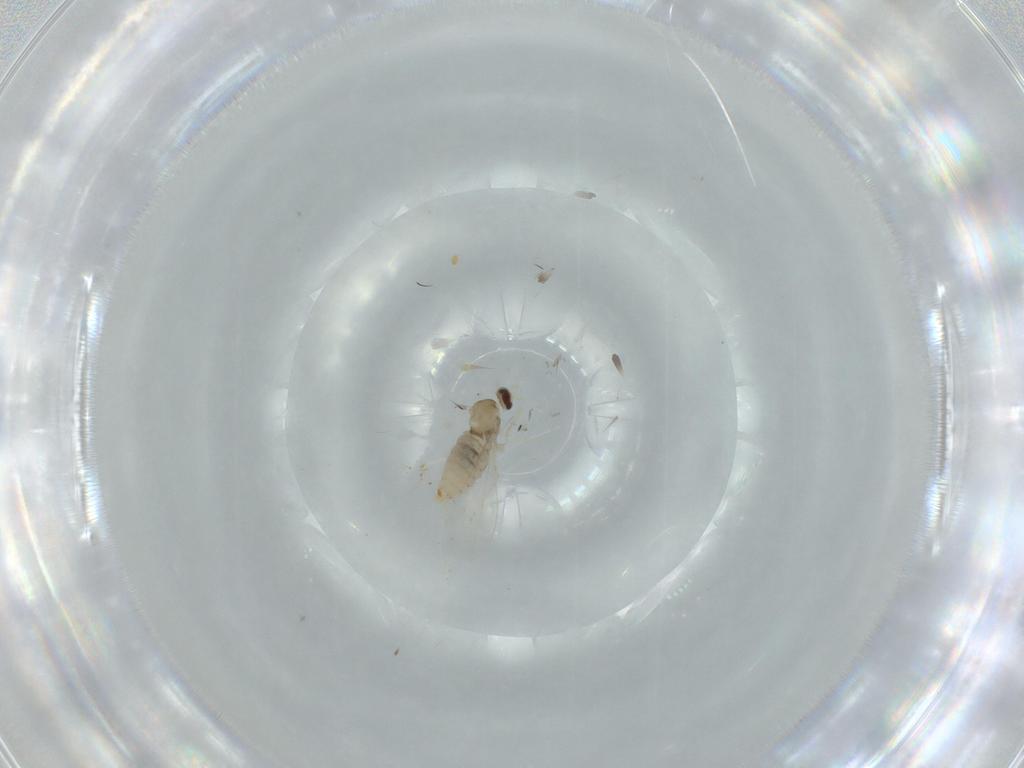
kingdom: Animalia
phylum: Arthropoda
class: Insecta
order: Diptera
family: Cecidomyiidae
